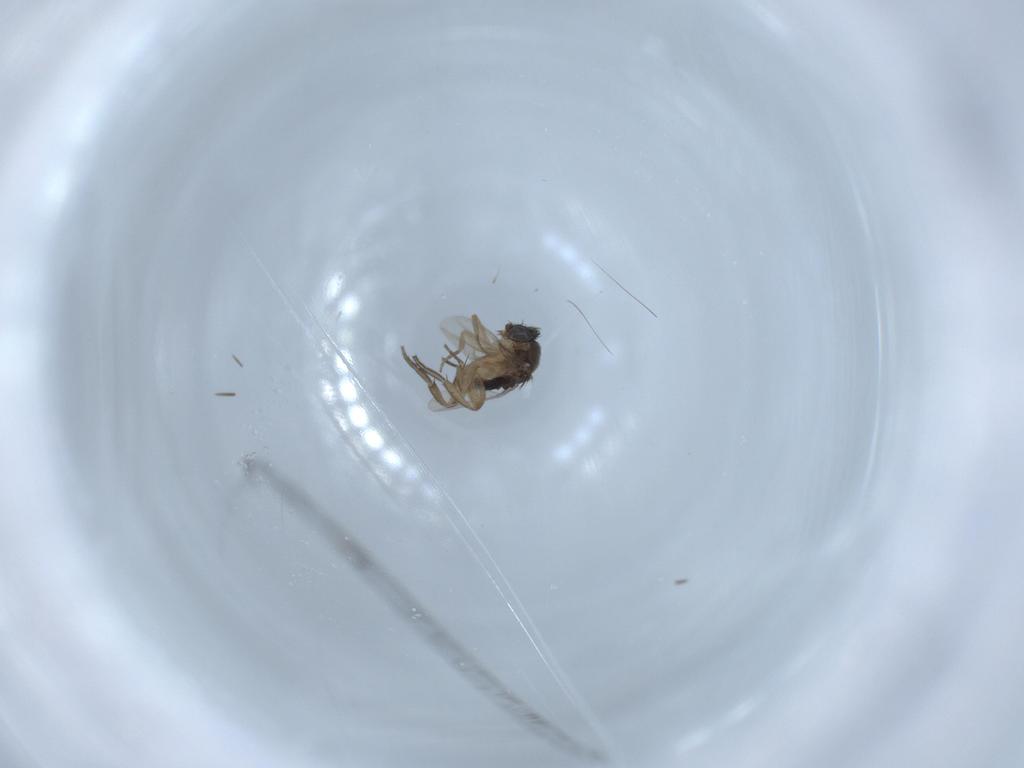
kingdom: Animalia
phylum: Arthropoda
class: Insecta
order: Diptera
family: Phoridae
